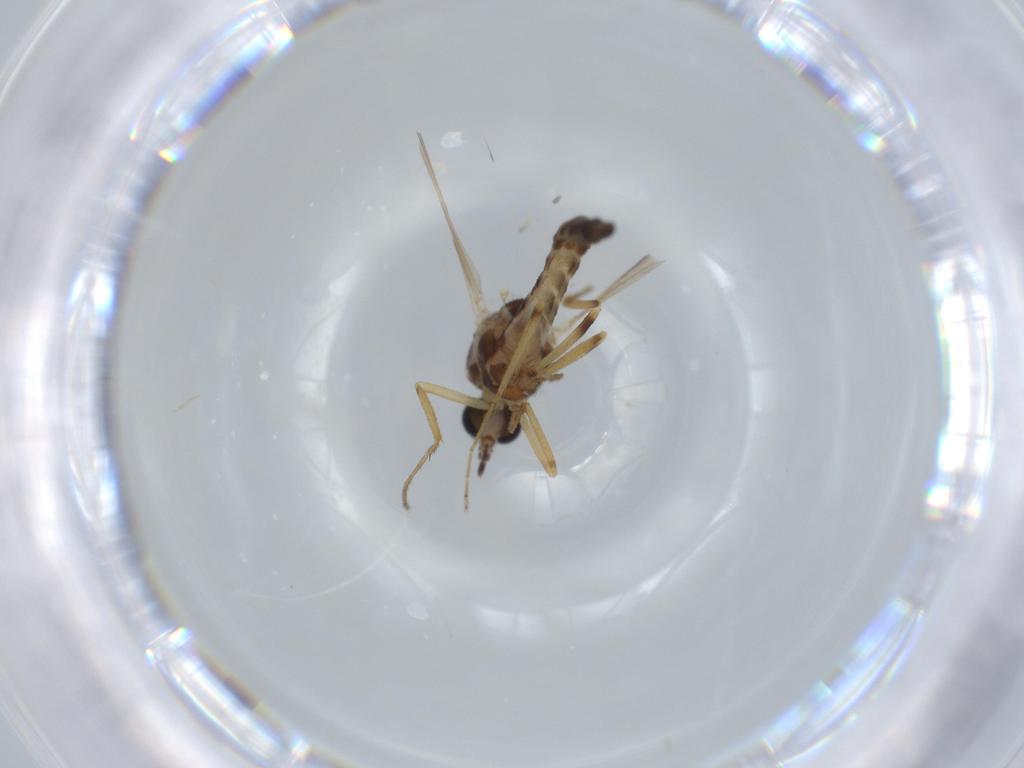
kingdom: Animalia
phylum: Arthropoda
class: Insecta
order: Diptera
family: Ceratopogonidae
